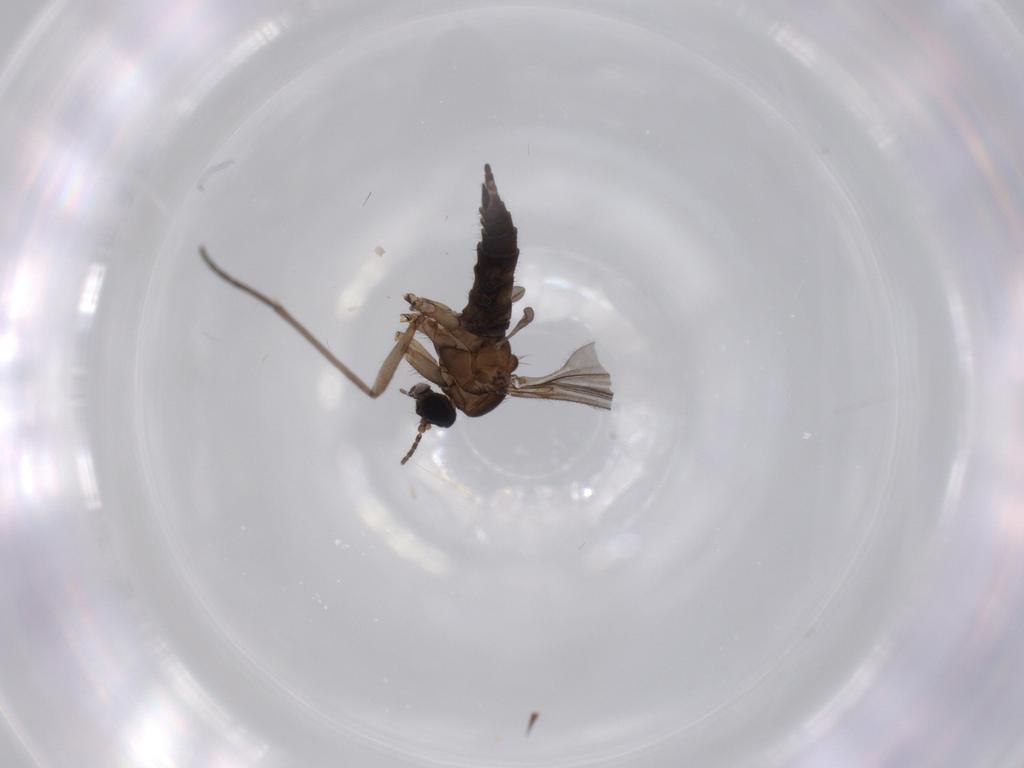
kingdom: Animalia
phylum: Arthropoda
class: Insecta
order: Diptera
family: Sciaridae
